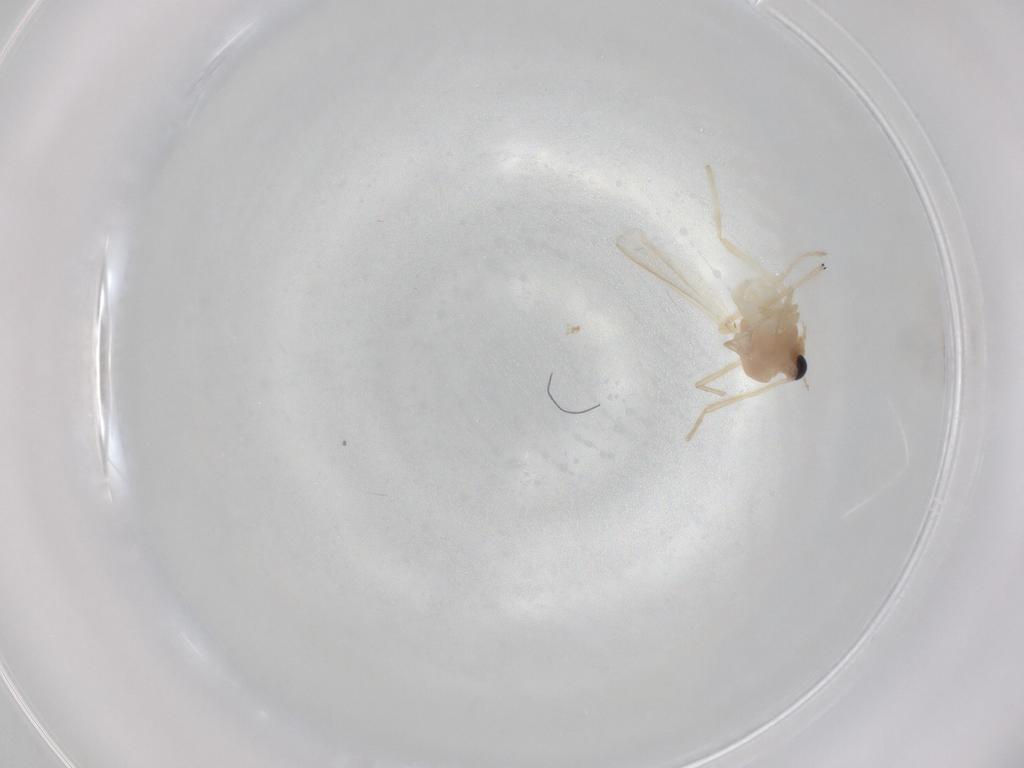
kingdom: Animalia
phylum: Arthropoda
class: Insecta
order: Diptera
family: Chironomidae
